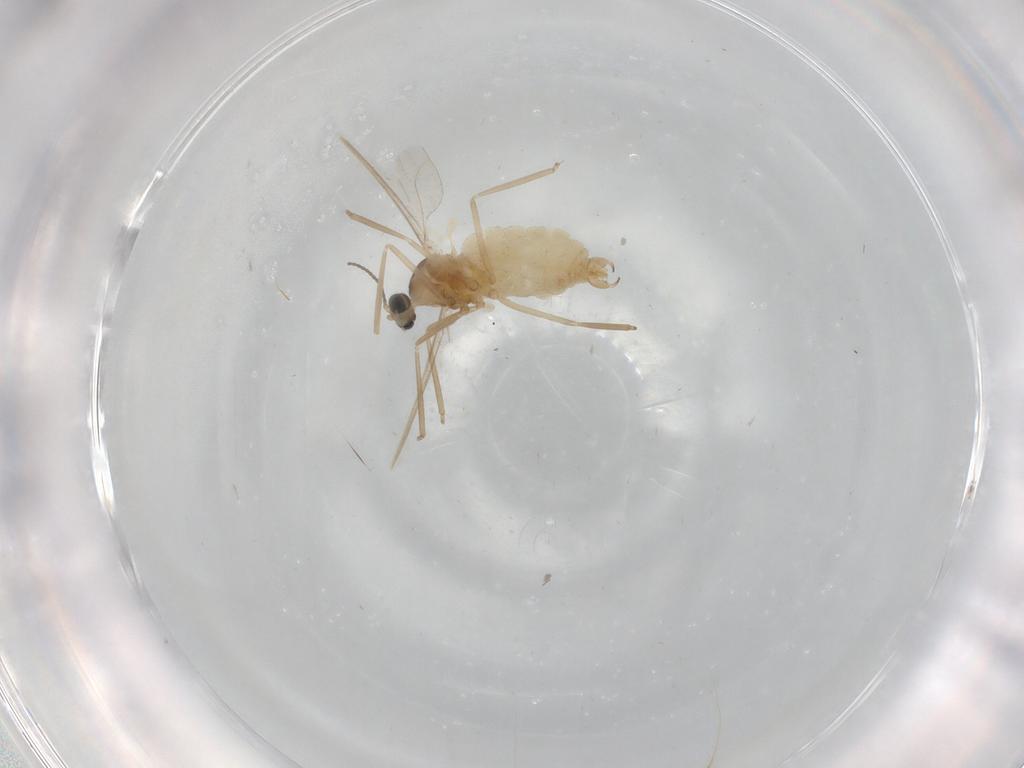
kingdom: Animalia
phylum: Arthropoda
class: Insecta
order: Diptera
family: Cecidomyiidae
